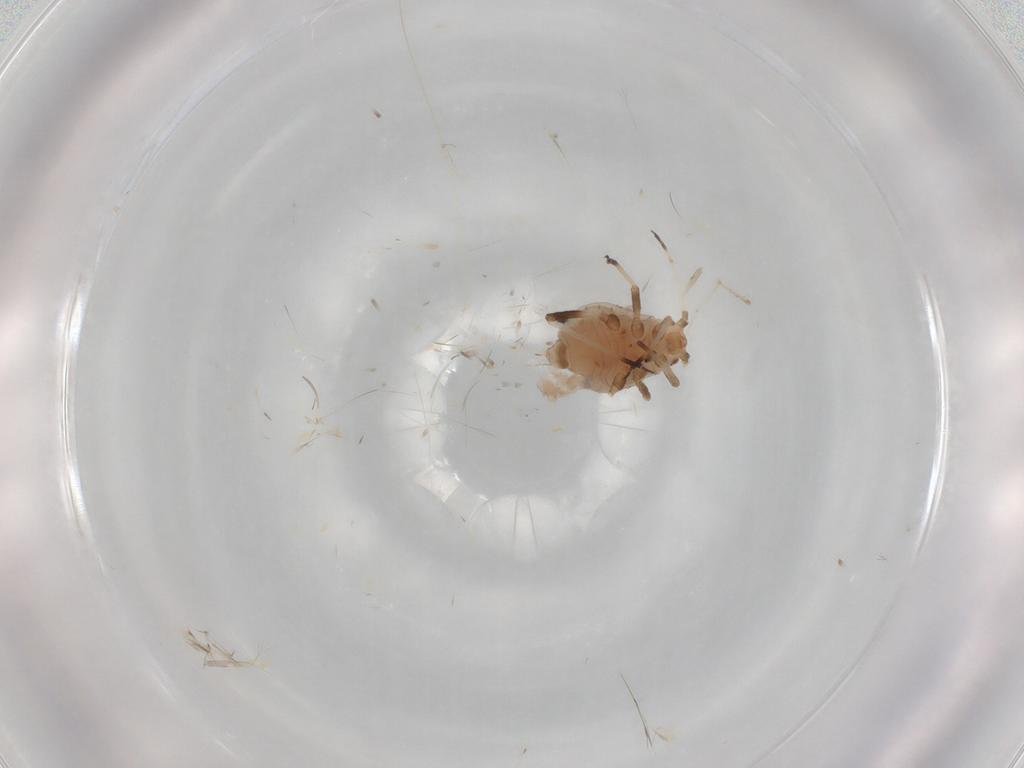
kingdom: Animalia
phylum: Arthropoda
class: Insecta
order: Hemiptera
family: Aphididae
